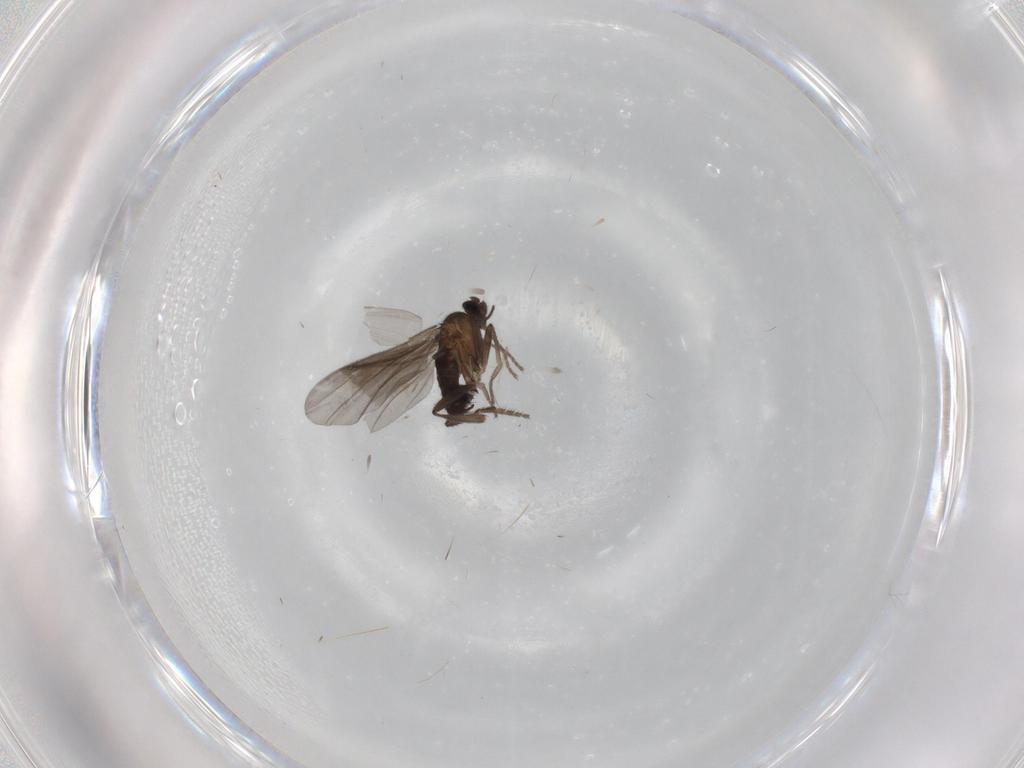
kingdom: Animalia
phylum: Arthropoda
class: Insecta
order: Diptera
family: Phoridae
